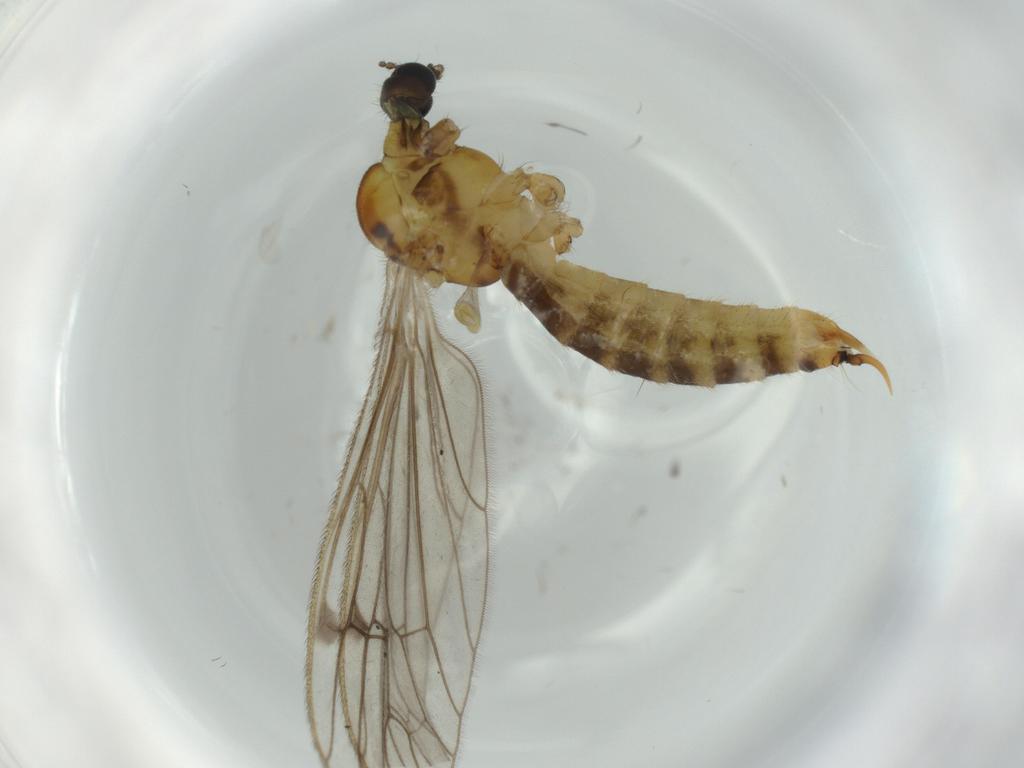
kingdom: Animalia
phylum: Arthropoda
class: Insecta
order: Diptera
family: Limoniidae
